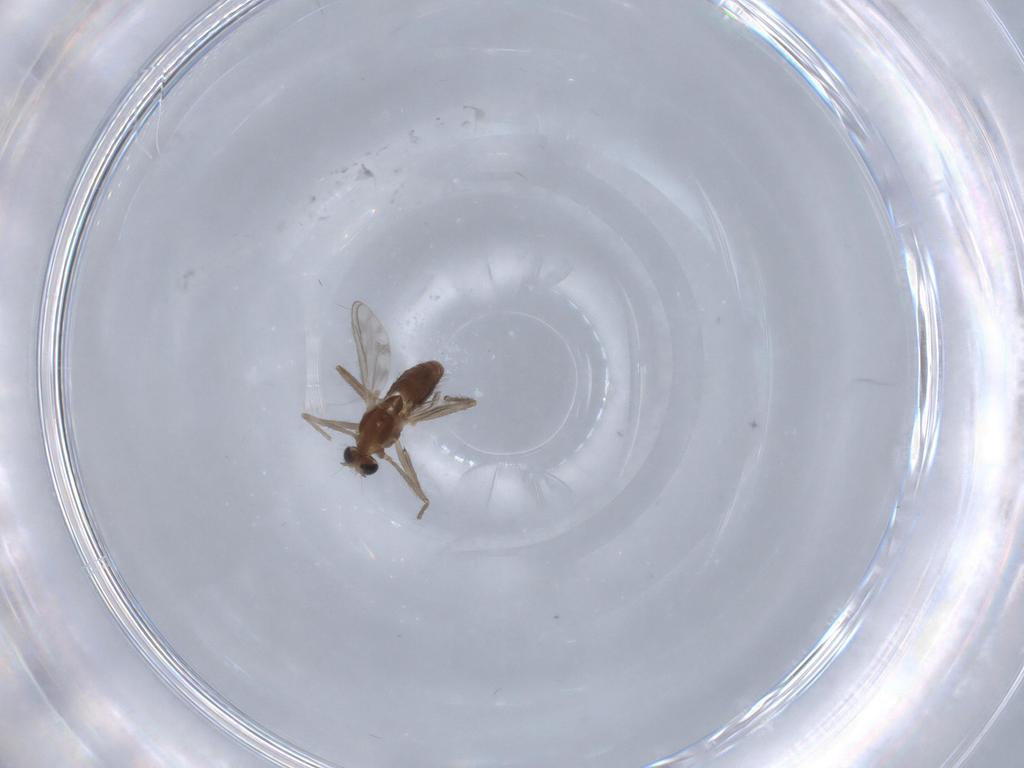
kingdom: Animalia
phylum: Arthropoda
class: Insecta
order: Diptera
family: Chironomidae
